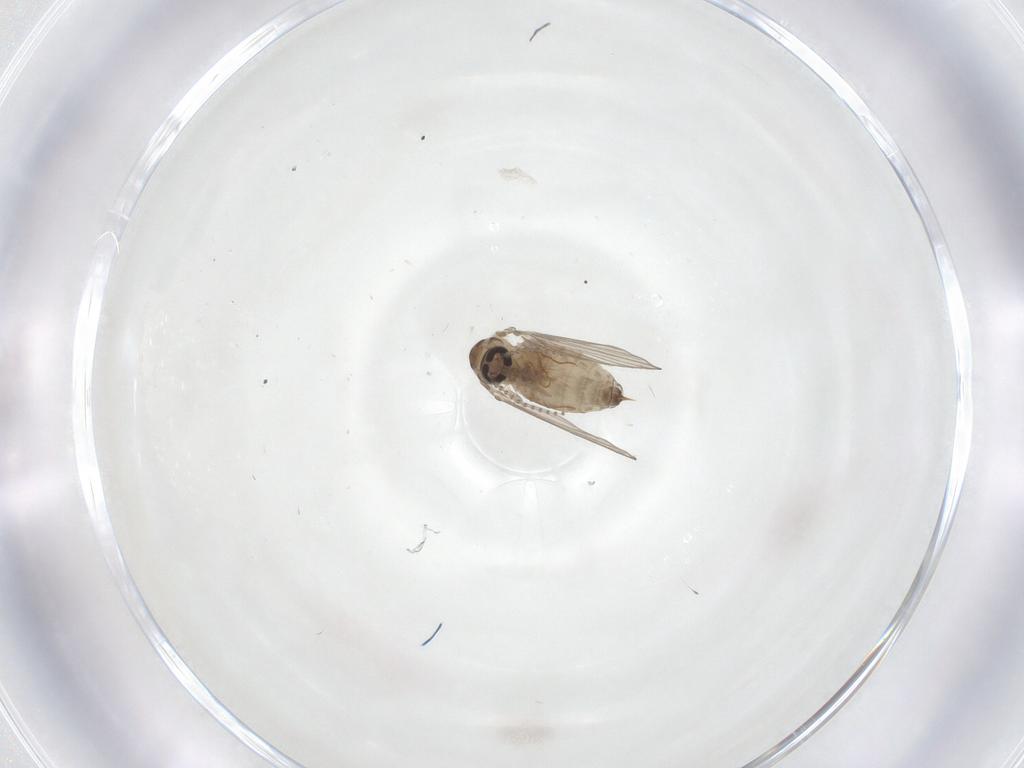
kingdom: Animalia
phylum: Arthropoda
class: Insecta
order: Diptera
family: Psychodidae
